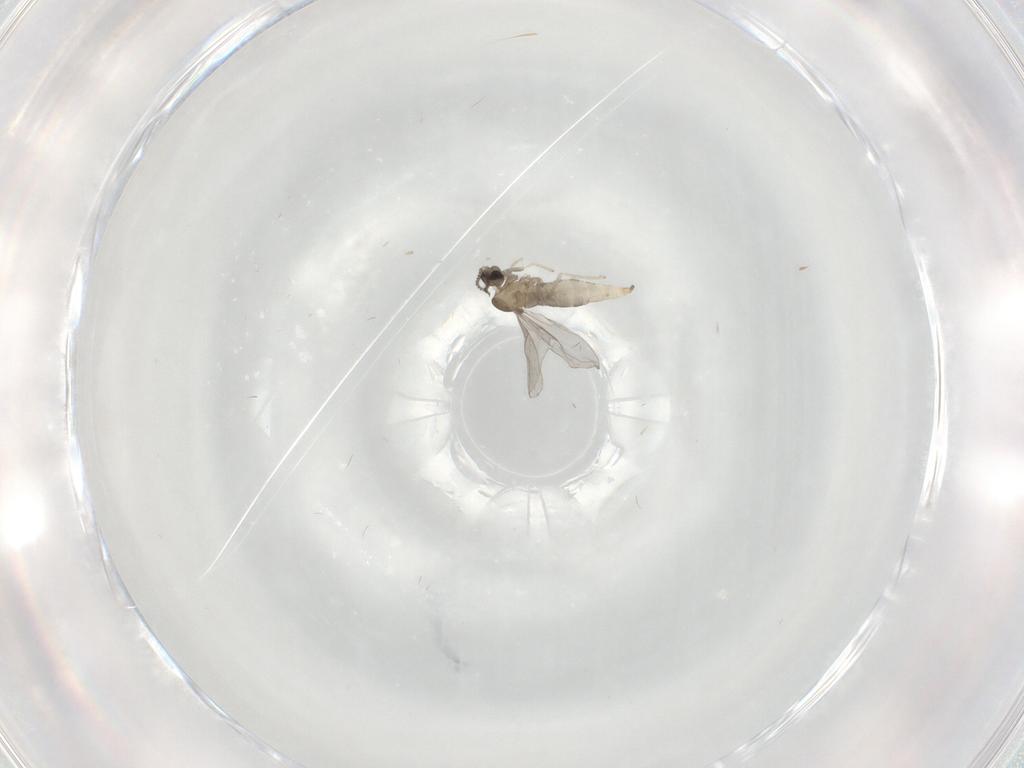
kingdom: Animalia
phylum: Arthropoda
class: Insecta
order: Diptera
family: Cecidomyiidae
